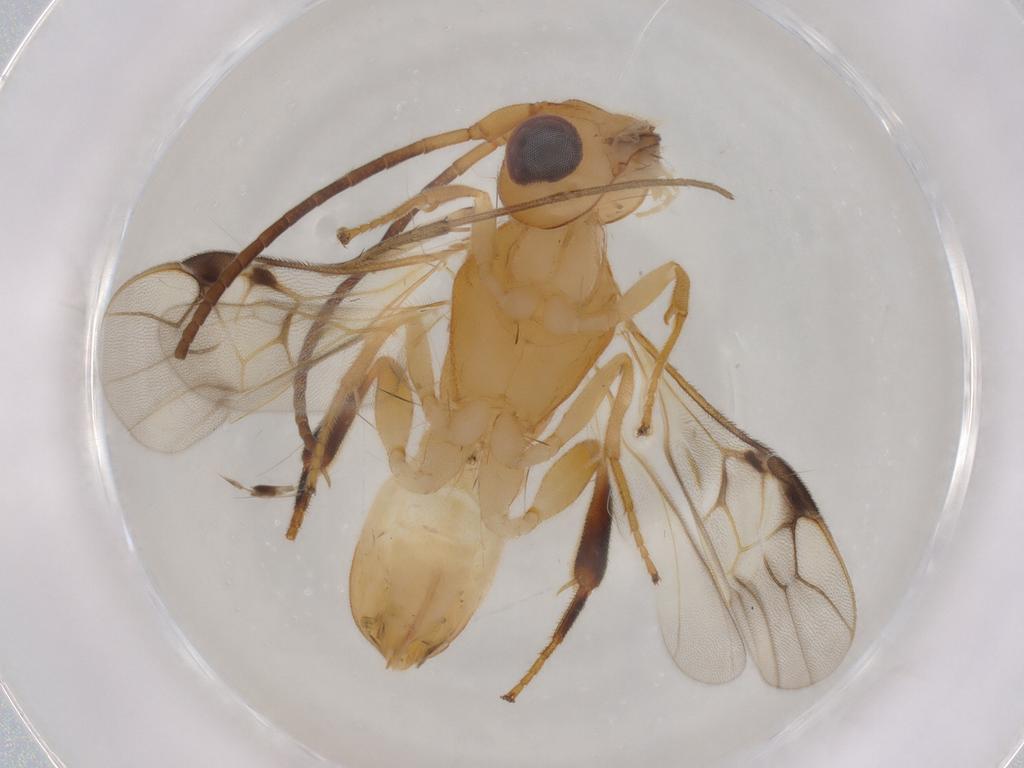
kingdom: Animalia
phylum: Arthropoda
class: Insecta
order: Hymenoptera
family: Braconidae
